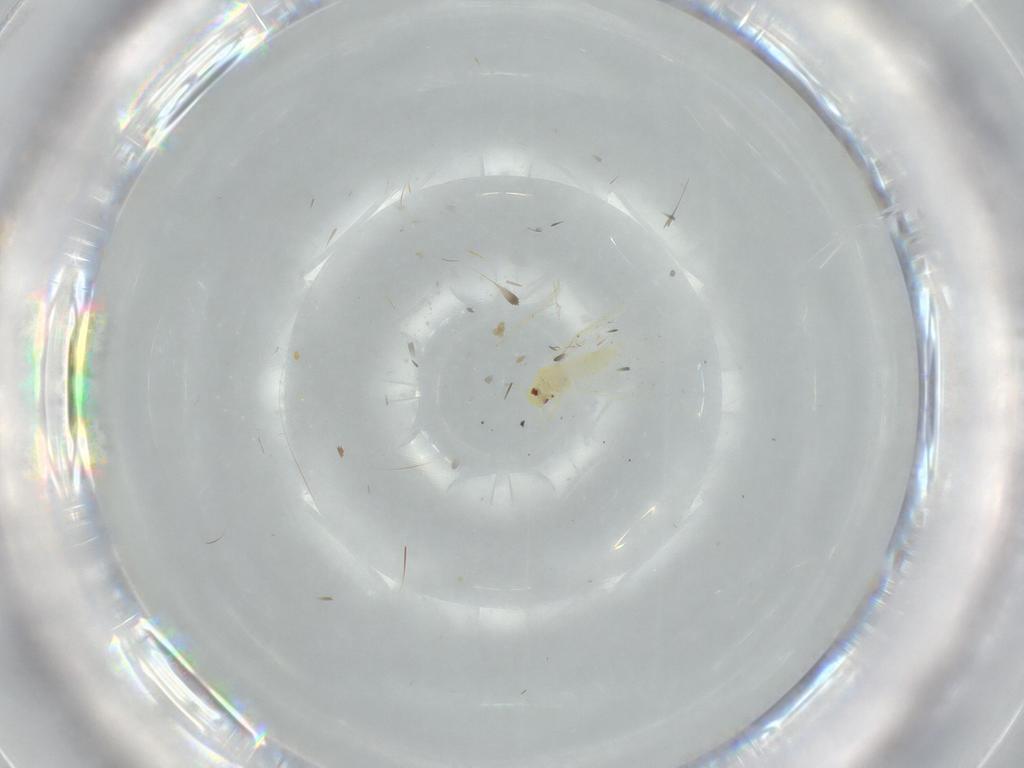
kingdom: Animalia
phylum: Arthropoda
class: Insecta
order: Hemiptera
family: Aleyrodidae
